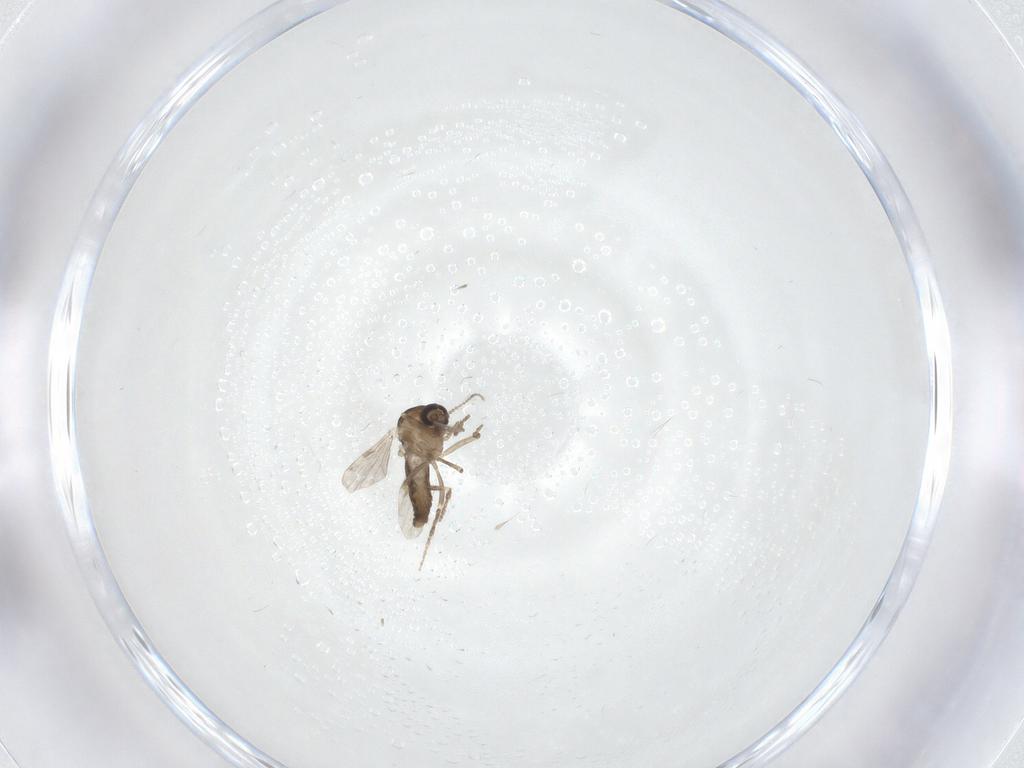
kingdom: Animalia
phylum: Arthropoda
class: Insecta
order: Diptera
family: Ceratopogonidae
